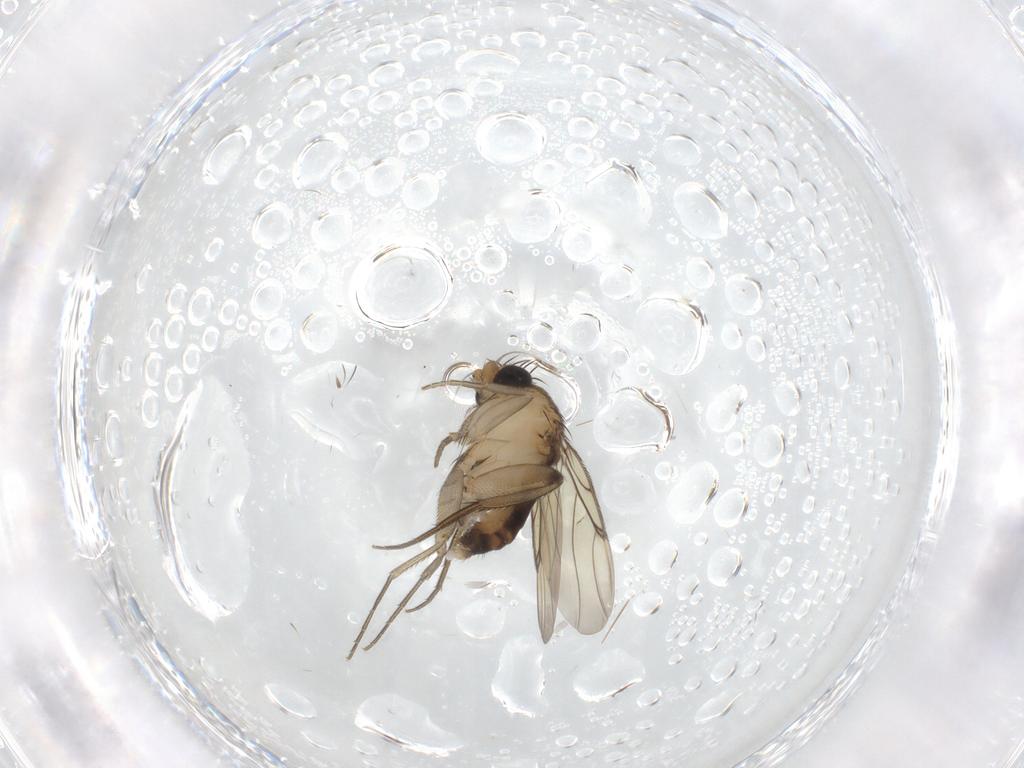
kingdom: Animalia
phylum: Arthropoda
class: Insecta
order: Diptera
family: Phoridae
